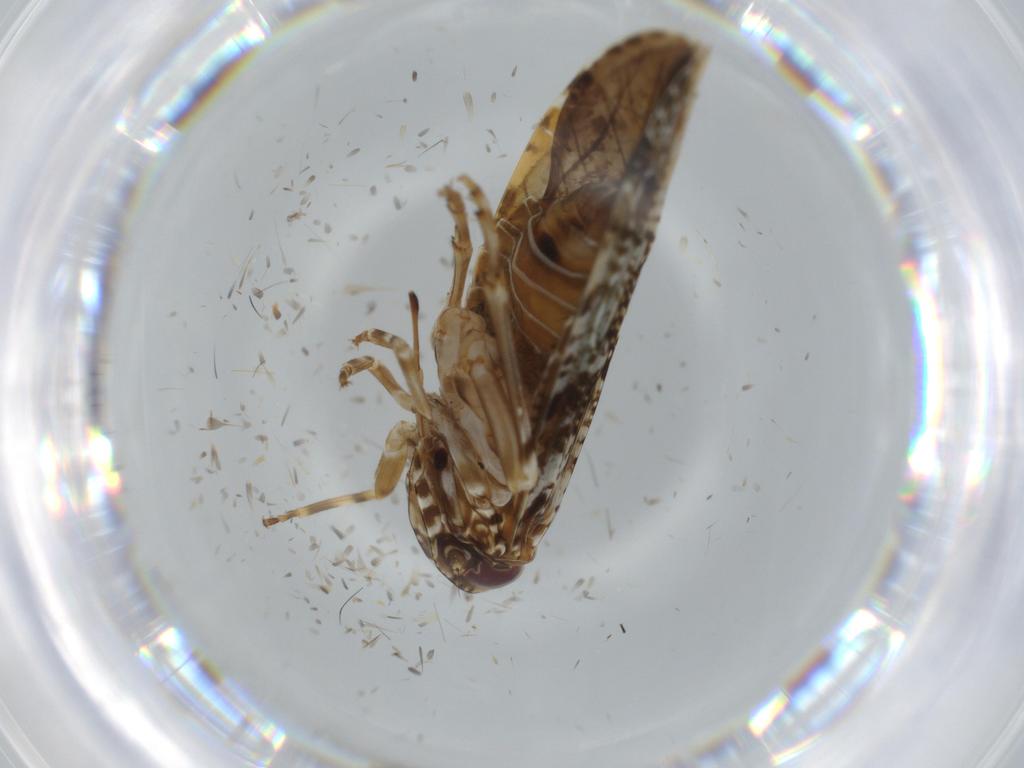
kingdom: Animalia
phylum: Arthropoda
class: Insecta
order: Hemiptera
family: Achilidae
